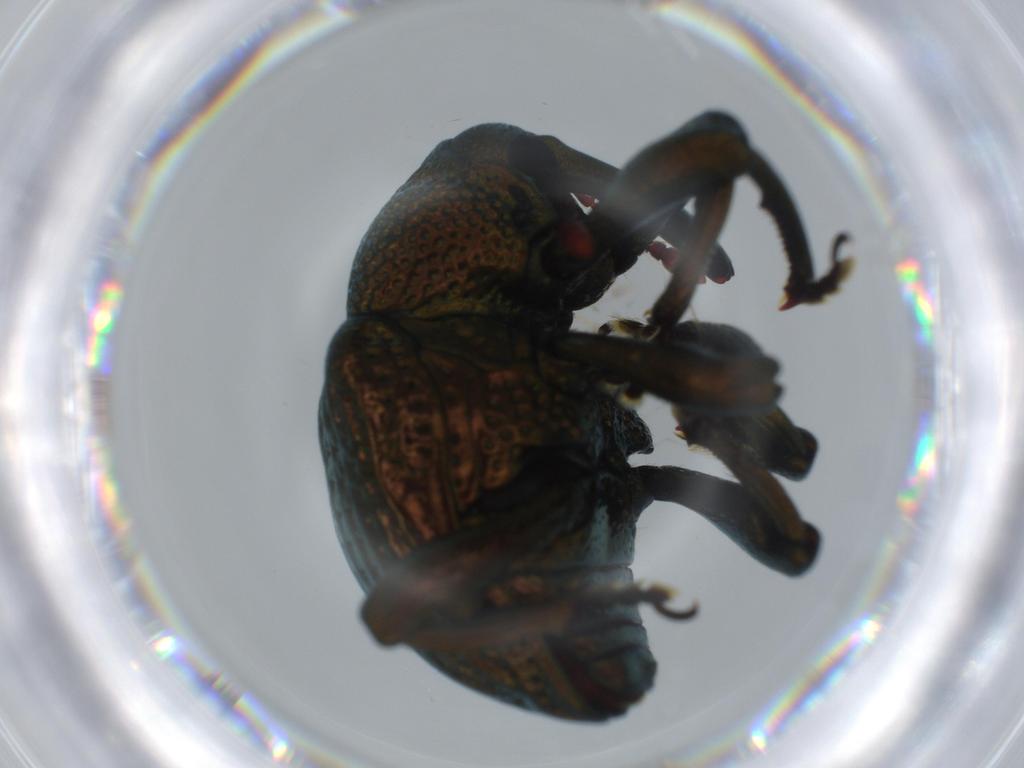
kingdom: Animalia
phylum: Arthropoda
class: Insecta
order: Coleoptera
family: Curculionidae
